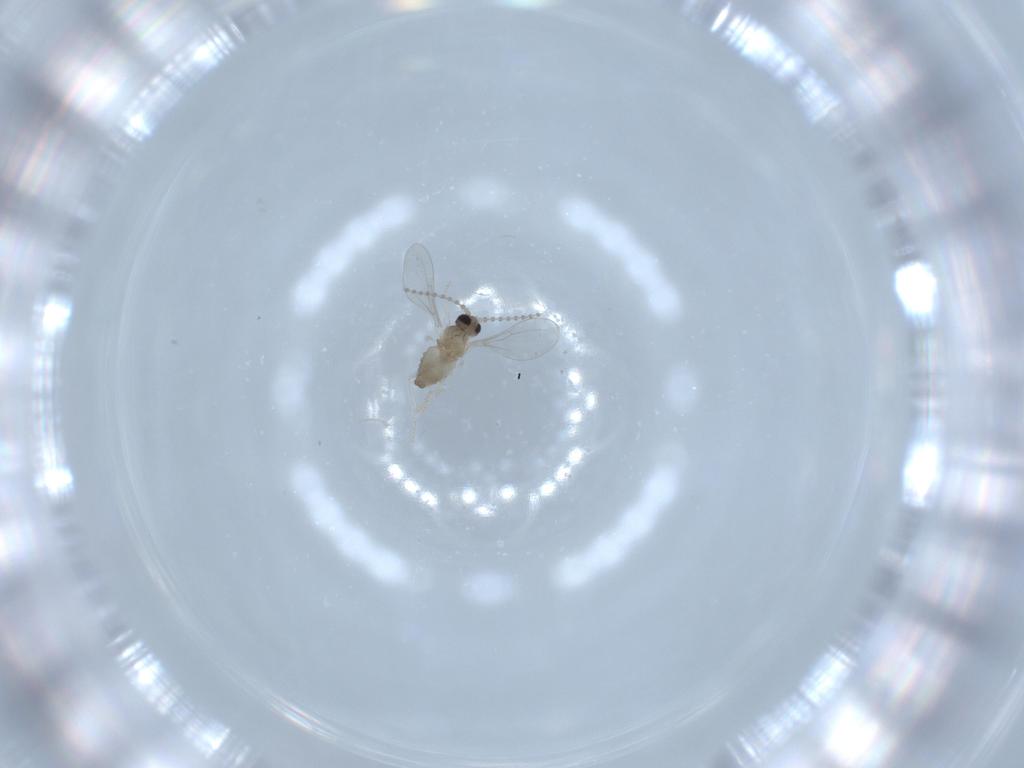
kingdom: Animalia
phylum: Arthropoda
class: Insecta
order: Diptera
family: Cecidomyiidae
